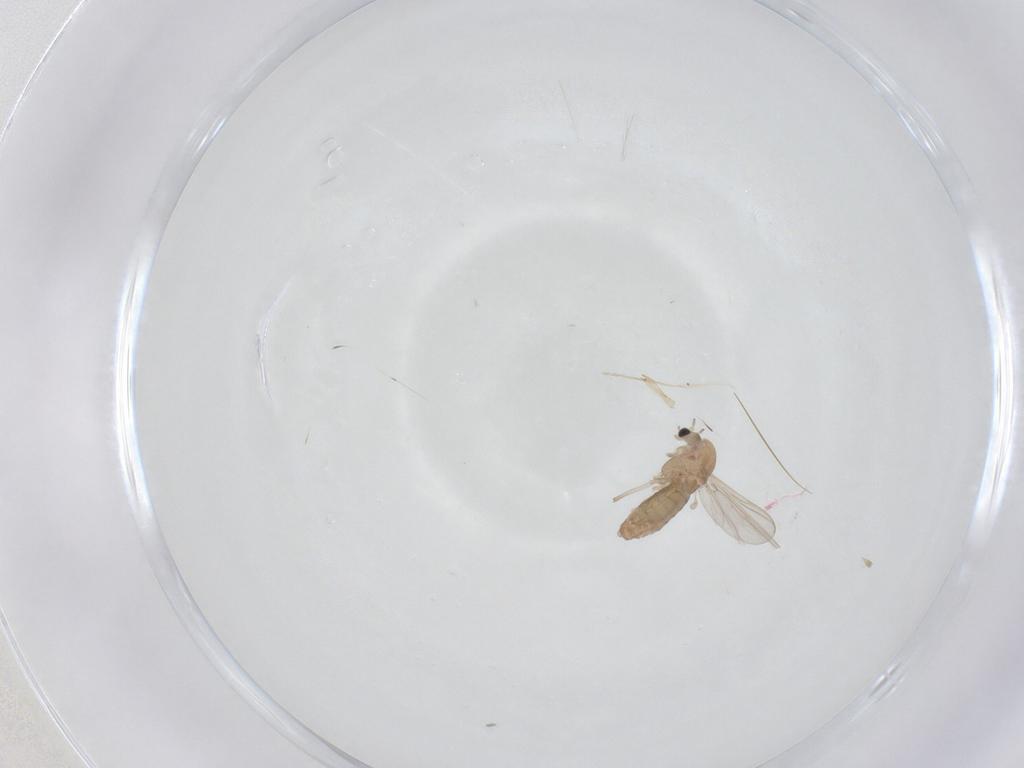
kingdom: Animalia
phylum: Arthropoda
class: Insecta
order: Diptera
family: Chironomidae
